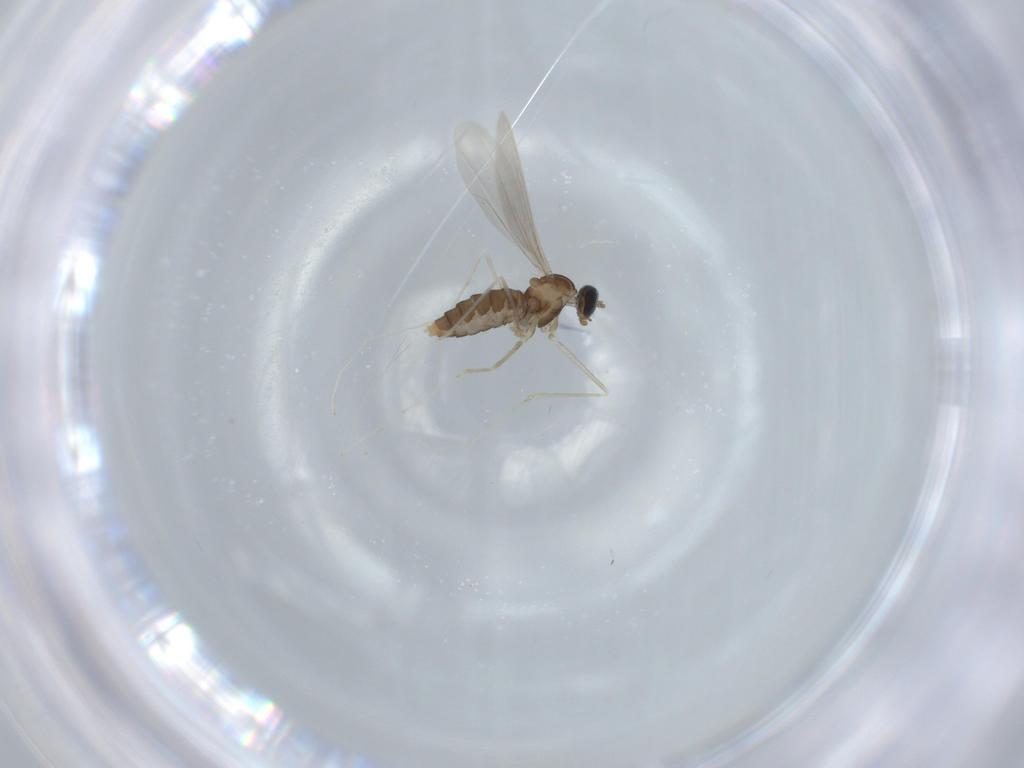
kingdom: Animalia
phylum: Arthropoda
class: Insecta
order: Diptera
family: Cecidomyiidae
